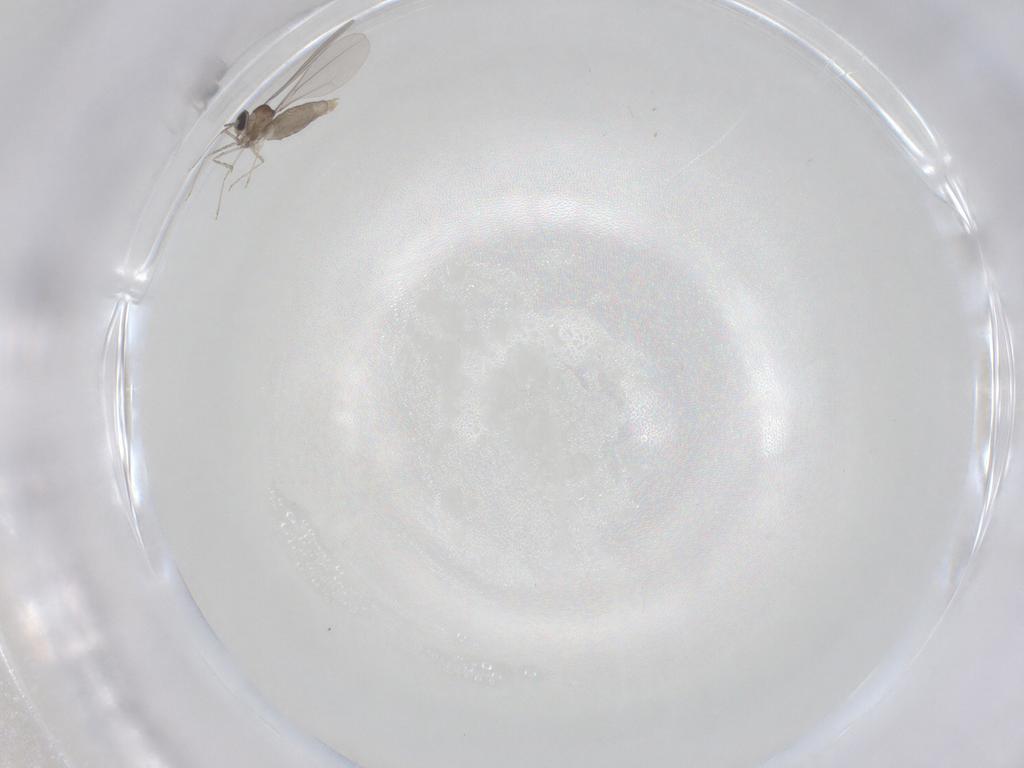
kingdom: Animalia
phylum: Arthropoda
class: Insecta
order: Diptera
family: Cecidomyiidae
